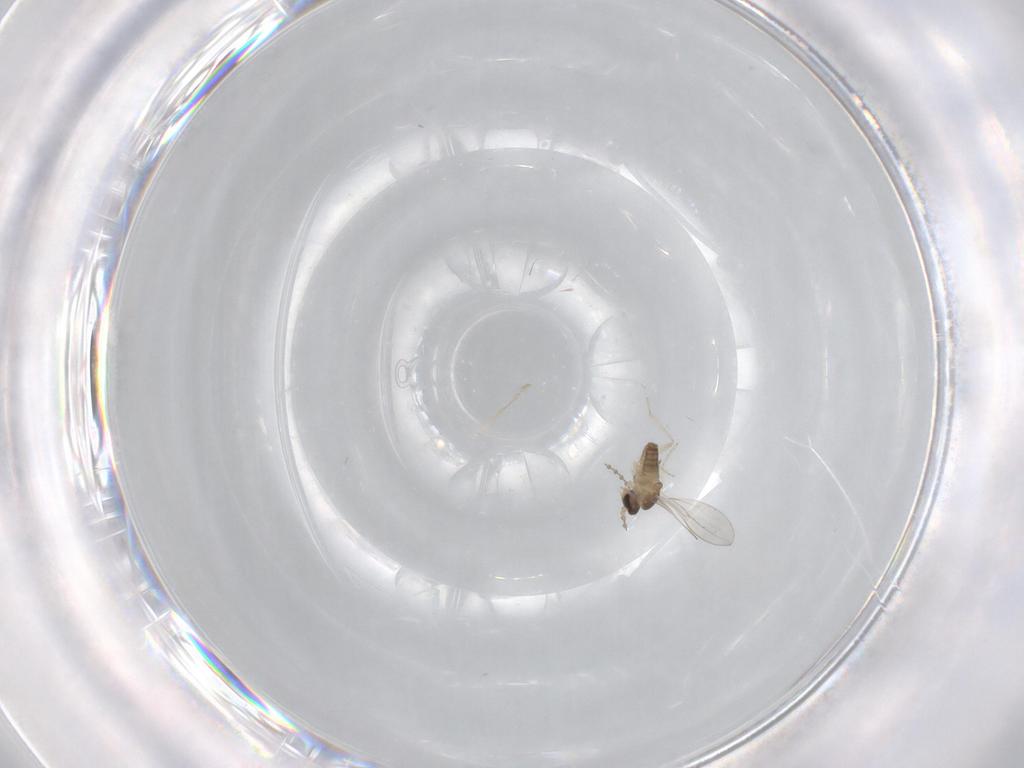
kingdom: Animalia
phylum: Arthropoda
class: Insecta
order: Diptera
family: Cecidomyiidae
